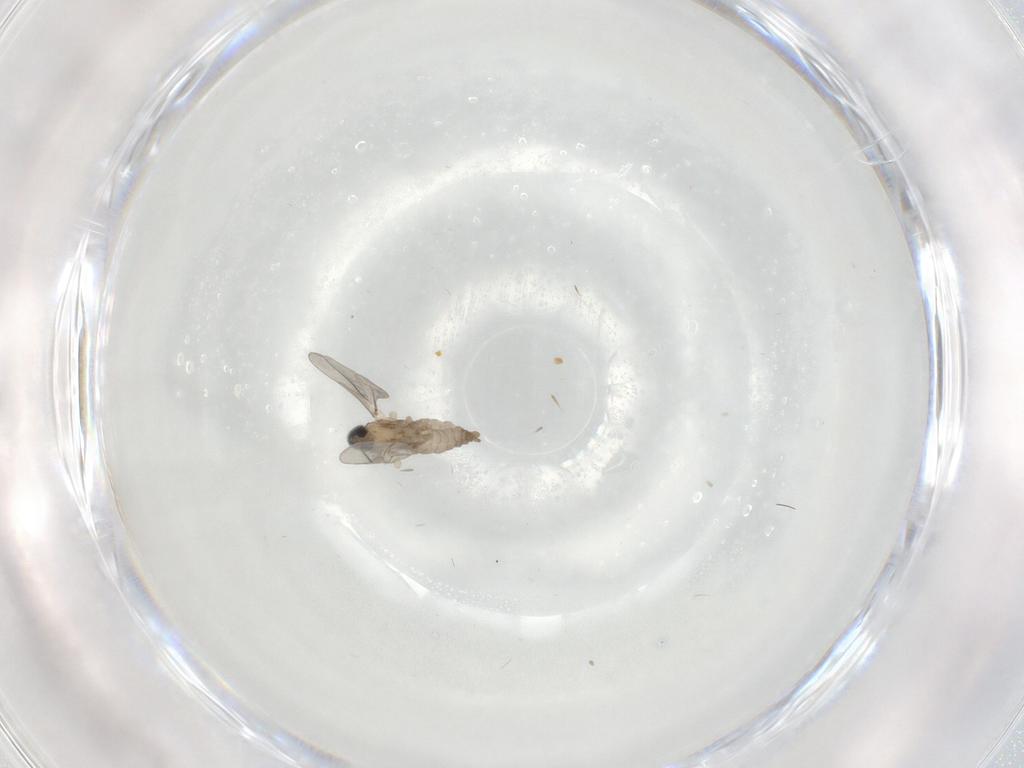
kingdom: Animalia
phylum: Arthropoda
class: Insecta
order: Diptera
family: Cecidomyiidae
